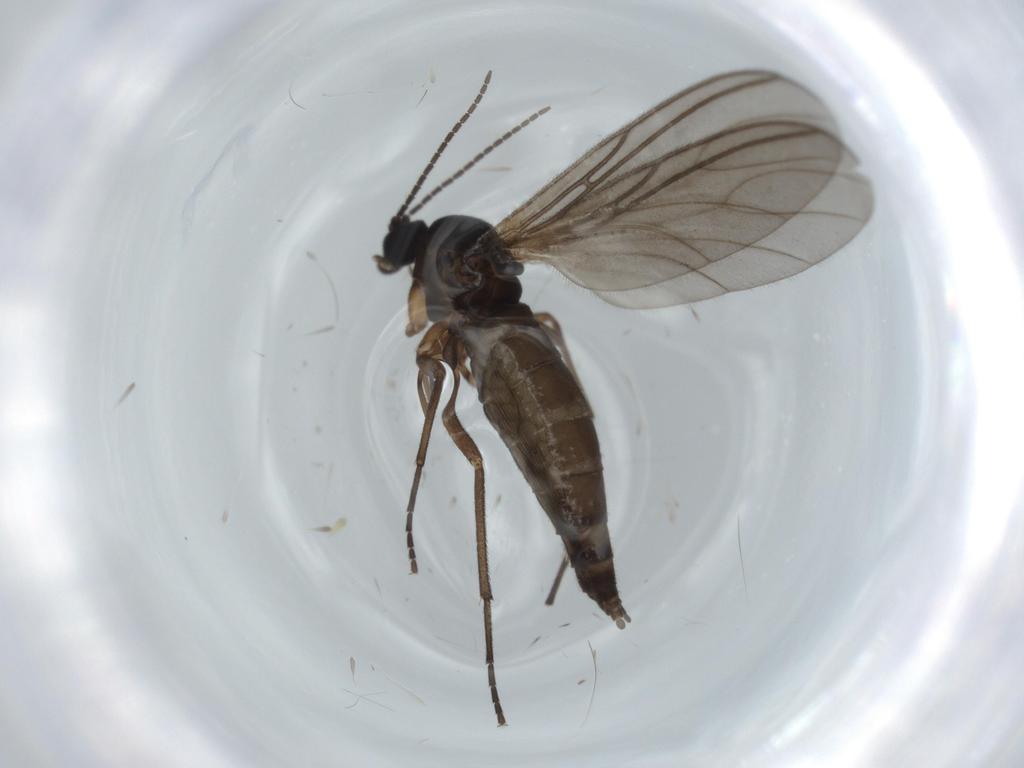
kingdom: Animalia
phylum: Arthropoda
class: Insecta
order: Diptera
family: Sciaridae
